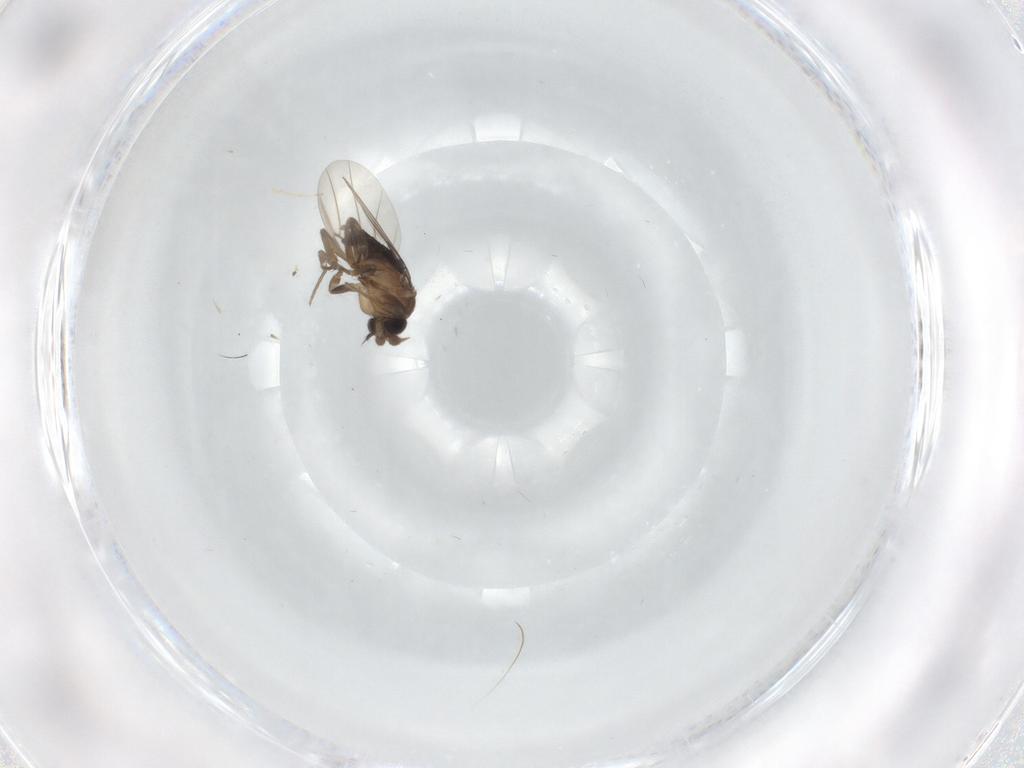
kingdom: Animalia
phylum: Arthropoda
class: Insecta
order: Diptera
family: Phoridae
